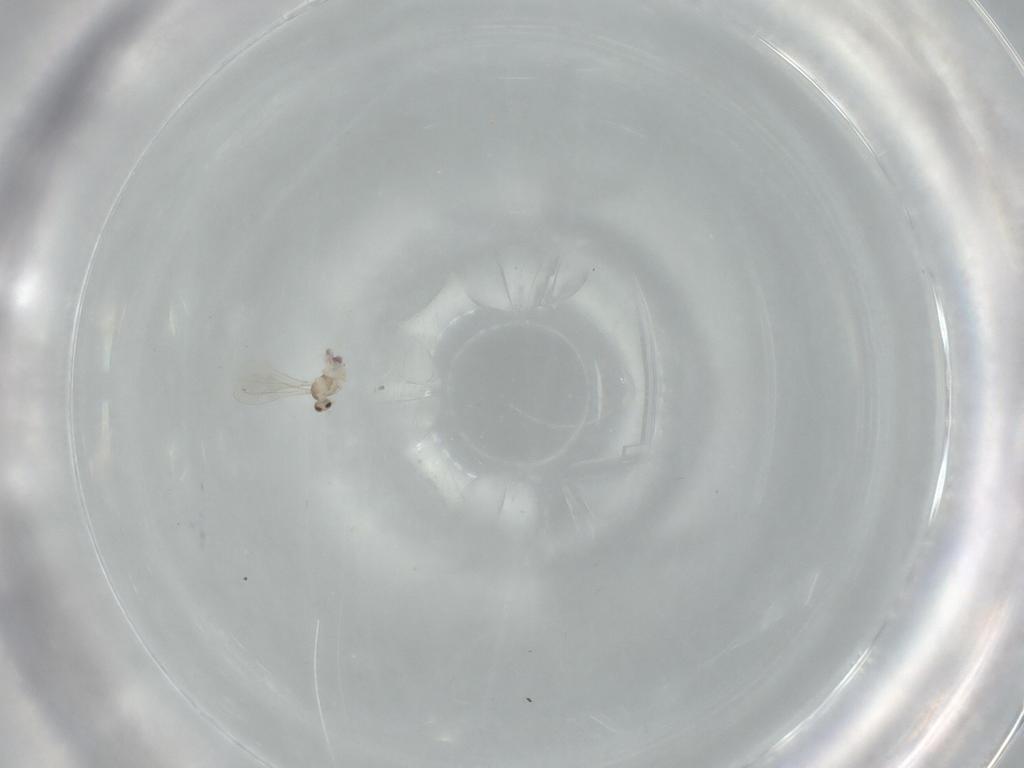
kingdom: Animalia
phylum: Arthropoda
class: Insecta
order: Diptera
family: Cecidomyiidae
